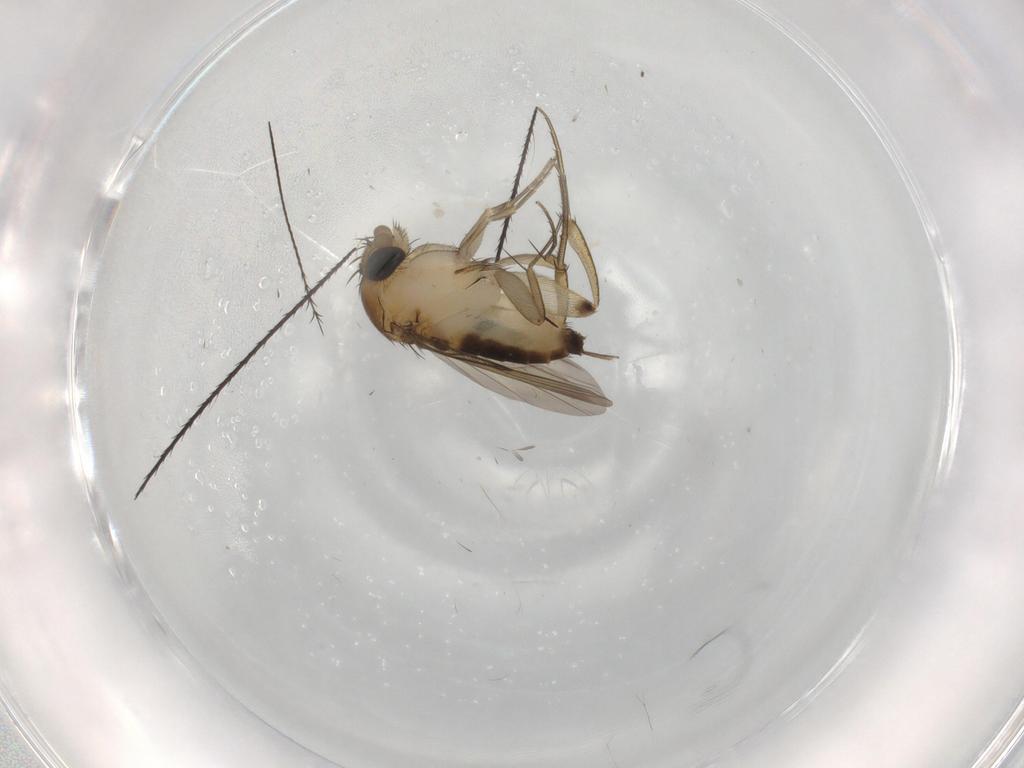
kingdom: Animalia
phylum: Arthropoda
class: Insecta
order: Diptera
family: Phoridae
